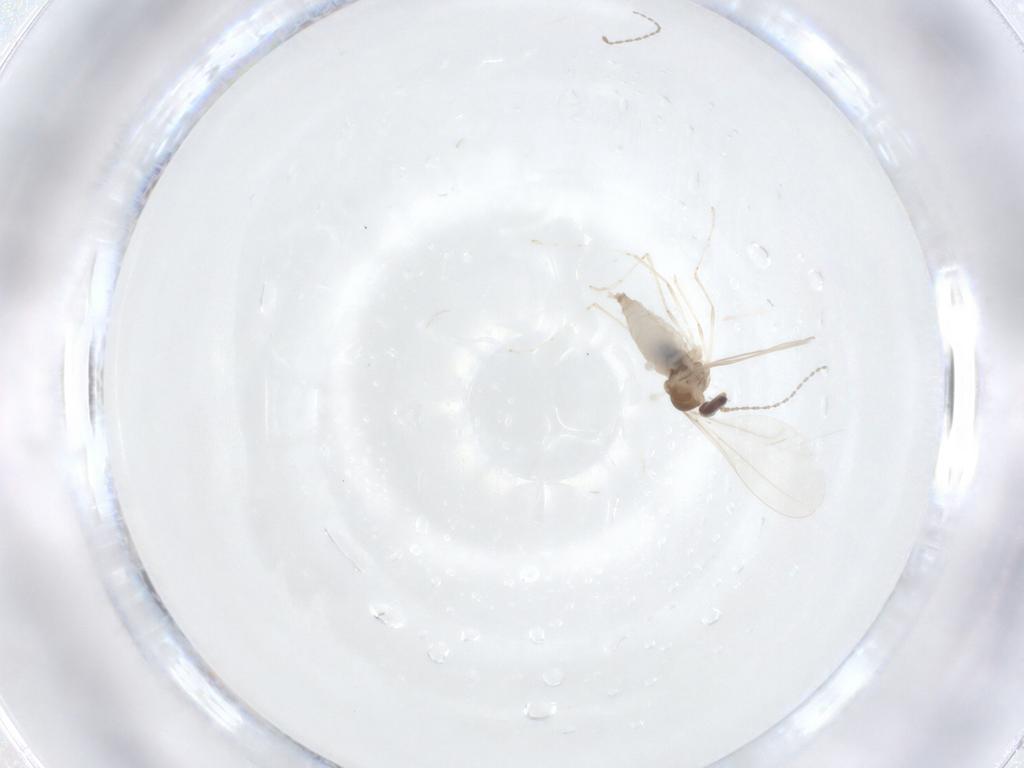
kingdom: Animalia
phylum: Arthropoda
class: Insecta
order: Diptera
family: Cecidomyiidae
